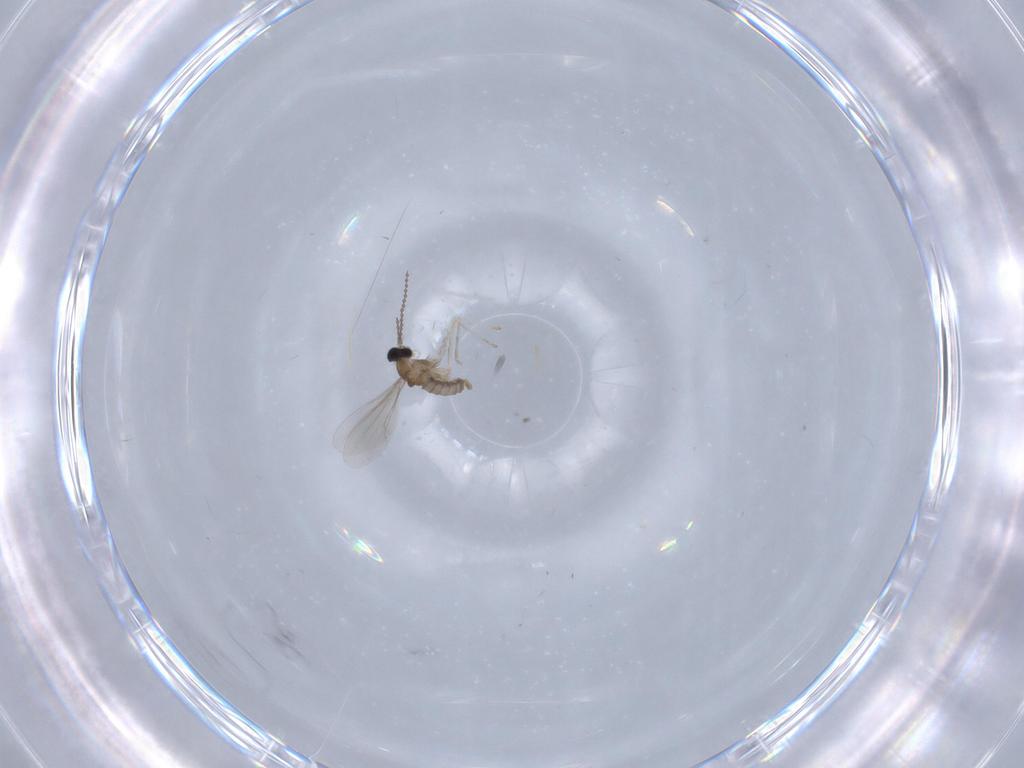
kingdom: Animalia
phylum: Arthropoda
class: Insecta
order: Diptera
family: Cecidomyiidae
